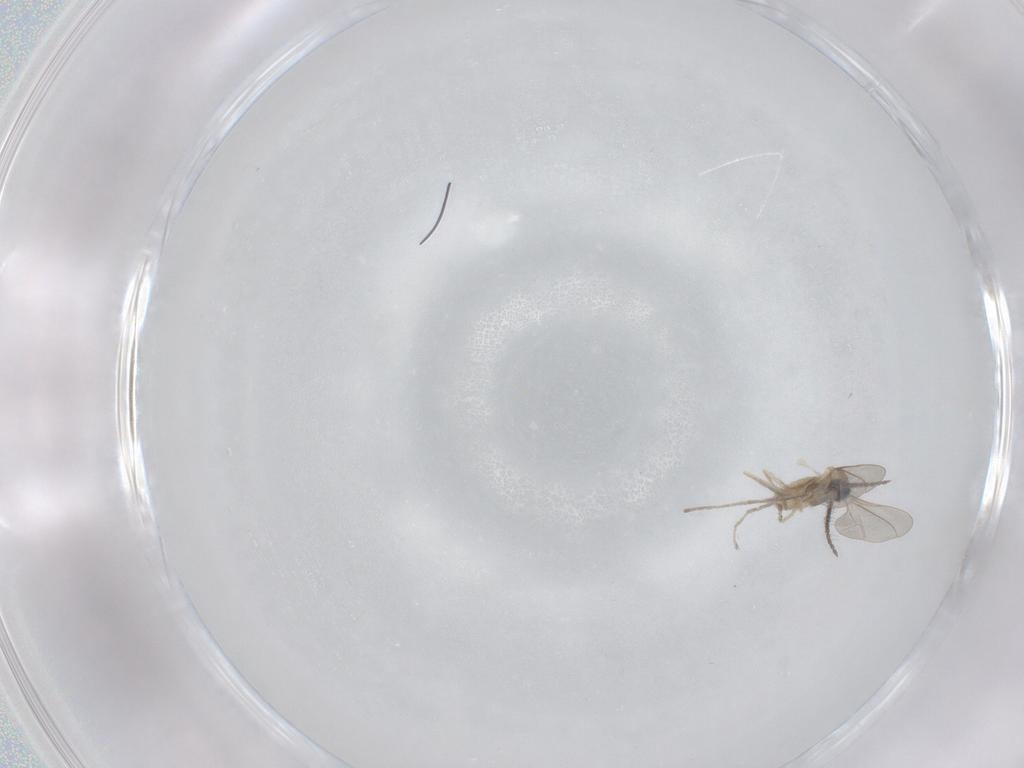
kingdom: Animalia
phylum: Arthropoda
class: Insecta
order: Diptera
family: Cecidomyiidae
